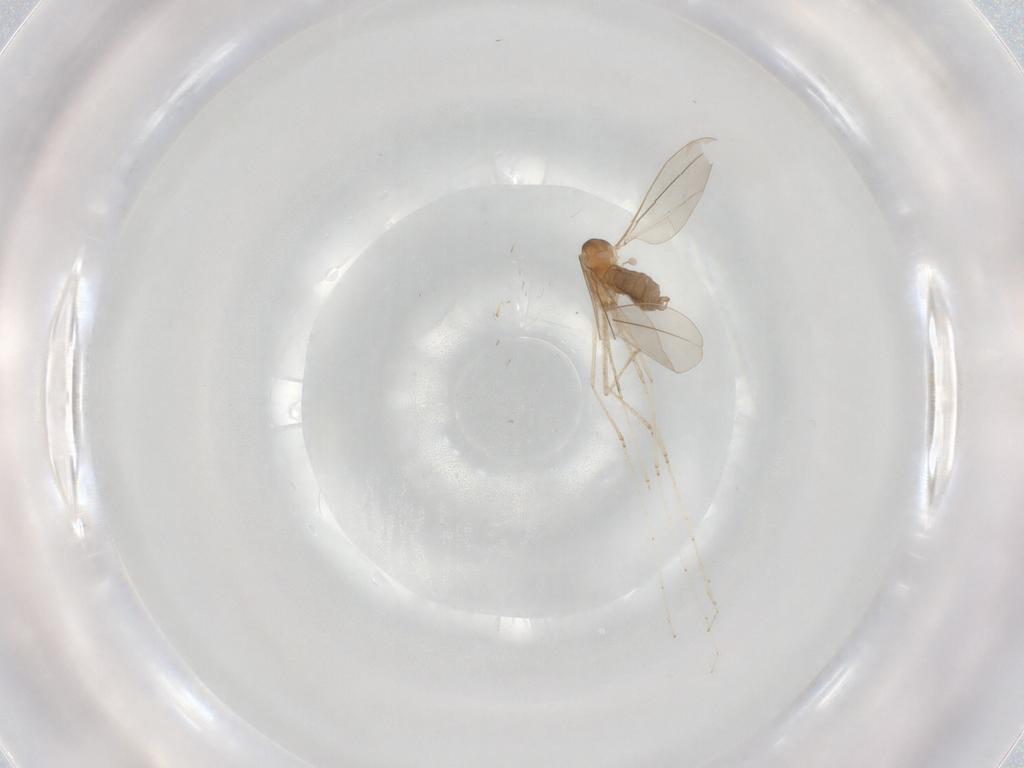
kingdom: Animalia
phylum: Arthropoda
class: Insecta
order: Diptera
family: Cecidomyiidae
